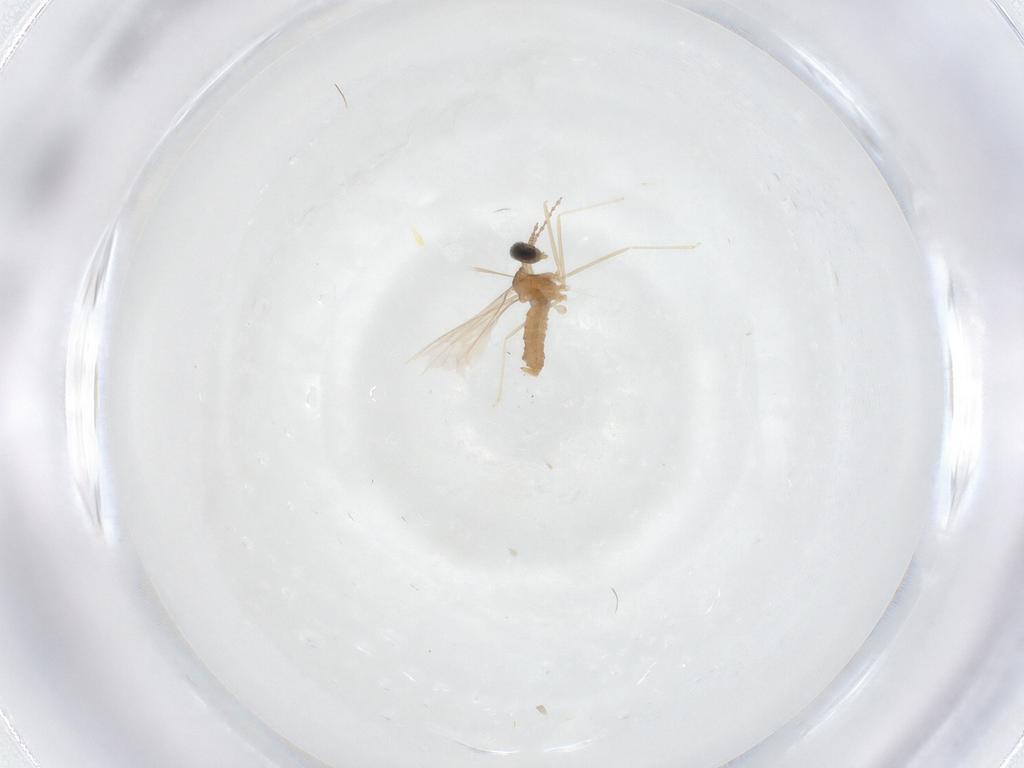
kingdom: Animalia
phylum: Arthropoda
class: Insecta
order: Diptera
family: Cecidomyiidae
